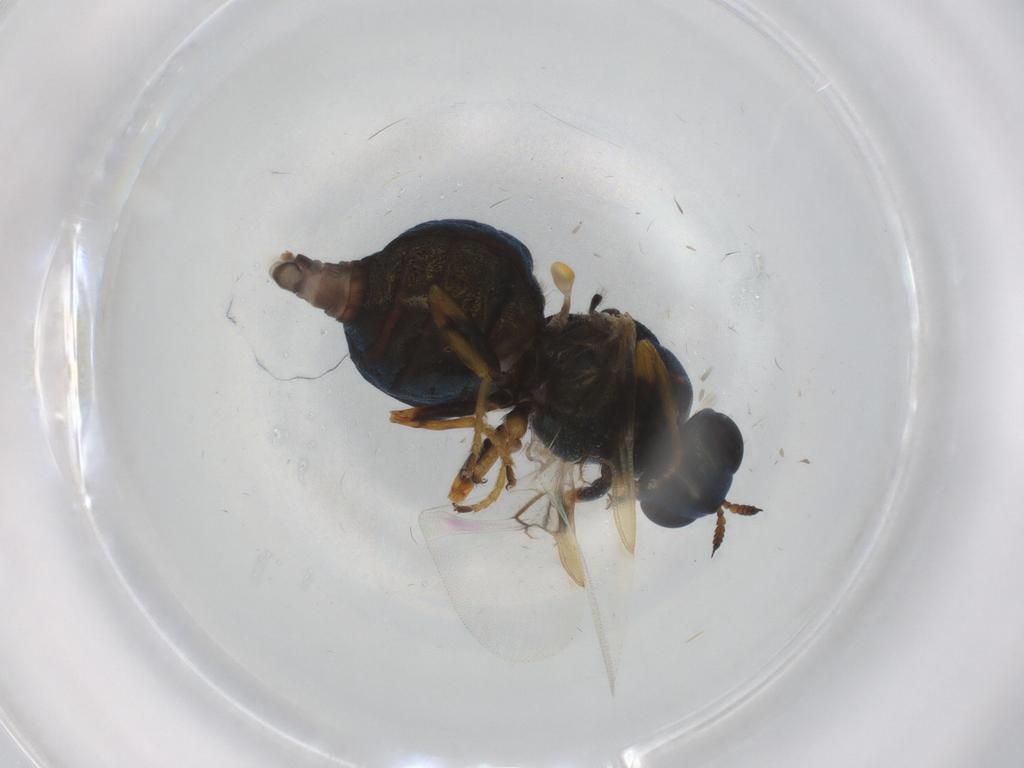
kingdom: Animalia
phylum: Arthropoda
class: Insecta
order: Diptera
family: Stratiomyidae
